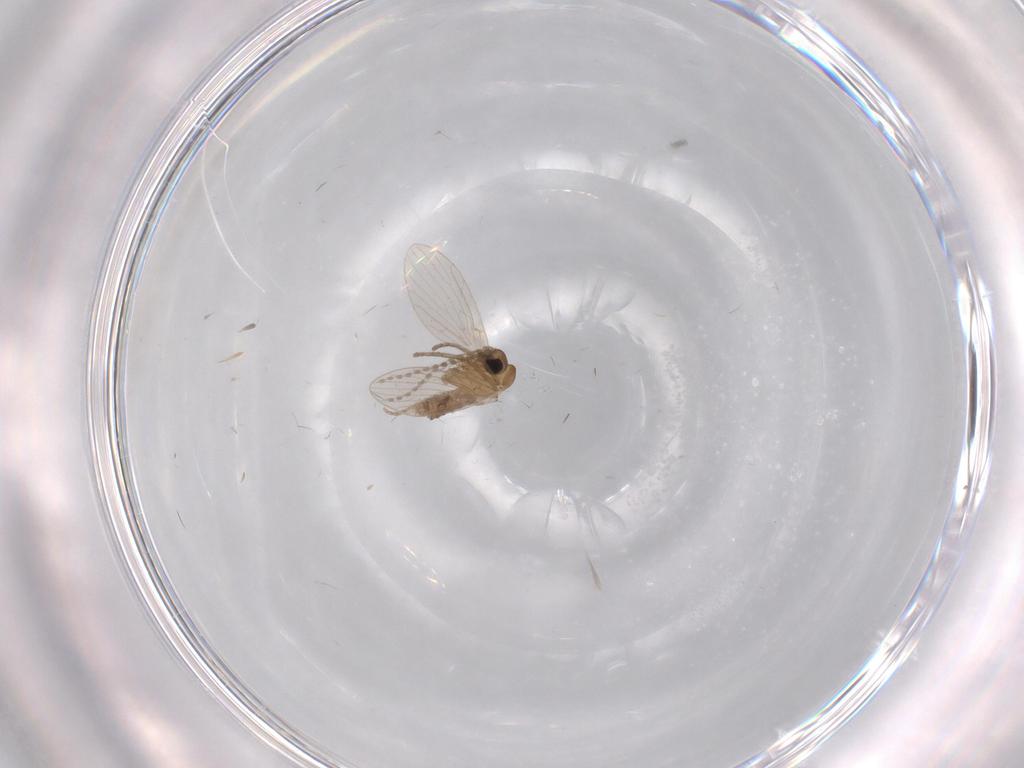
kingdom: Animalia
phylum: Arthropoda
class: Insecta
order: Diptera
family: Psychodidae
